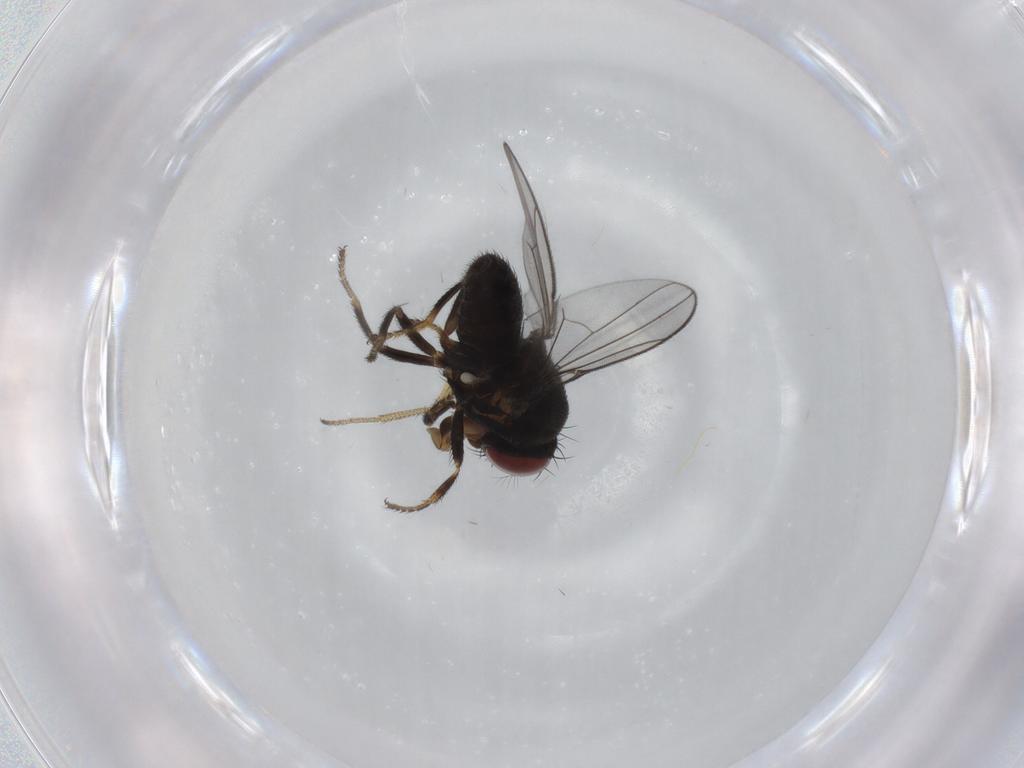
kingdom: Animalia
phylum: Arthropoda
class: Insecta
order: Diptera
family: Ephydridae
